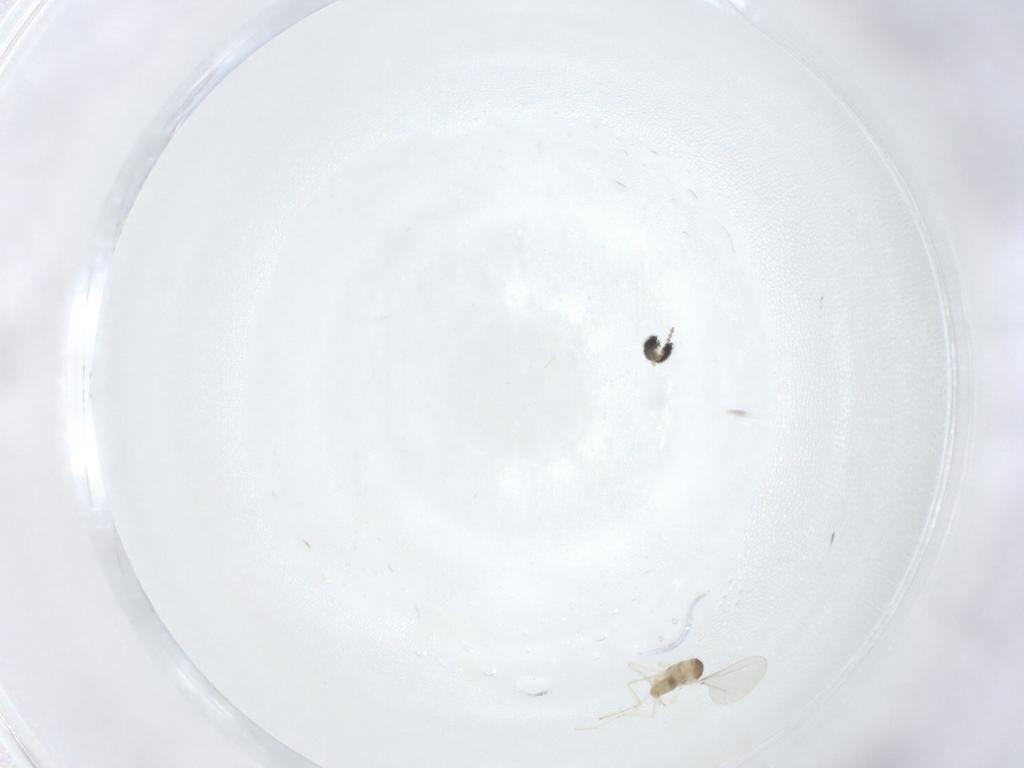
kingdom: Animalia
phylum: Arthropoda
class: Insecta
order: Diptera
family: Cecidomyiidae
